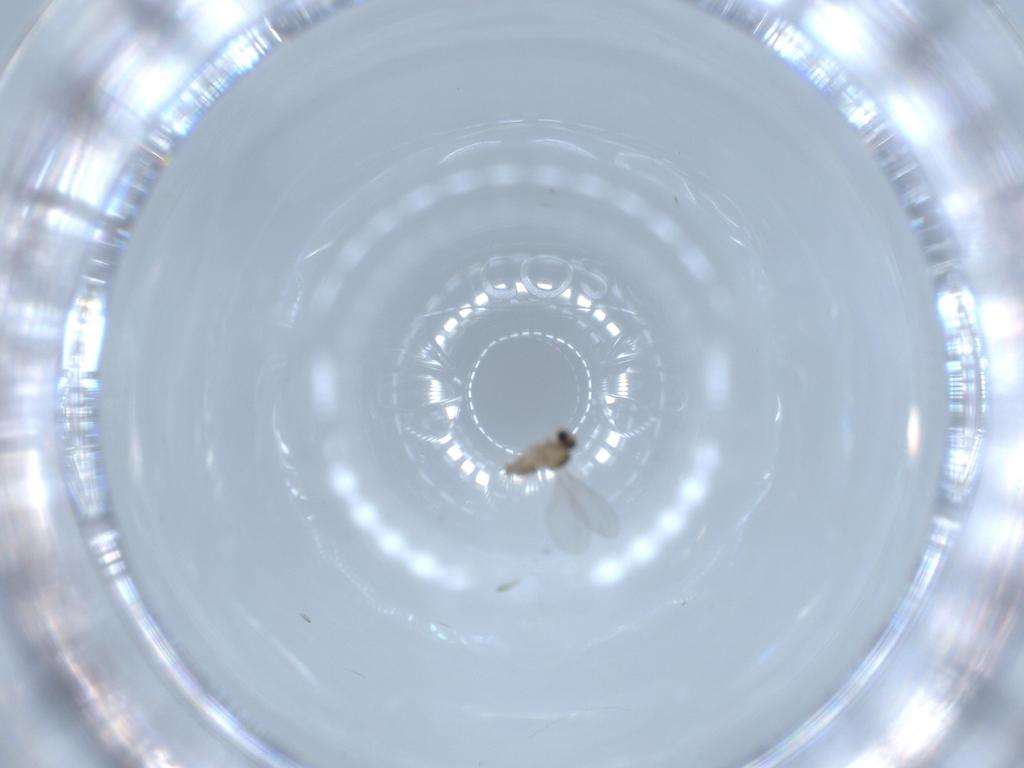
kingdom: Animalia
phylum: Arthropoda
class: Insecta
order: Diptera
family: Cecidomyiidae
